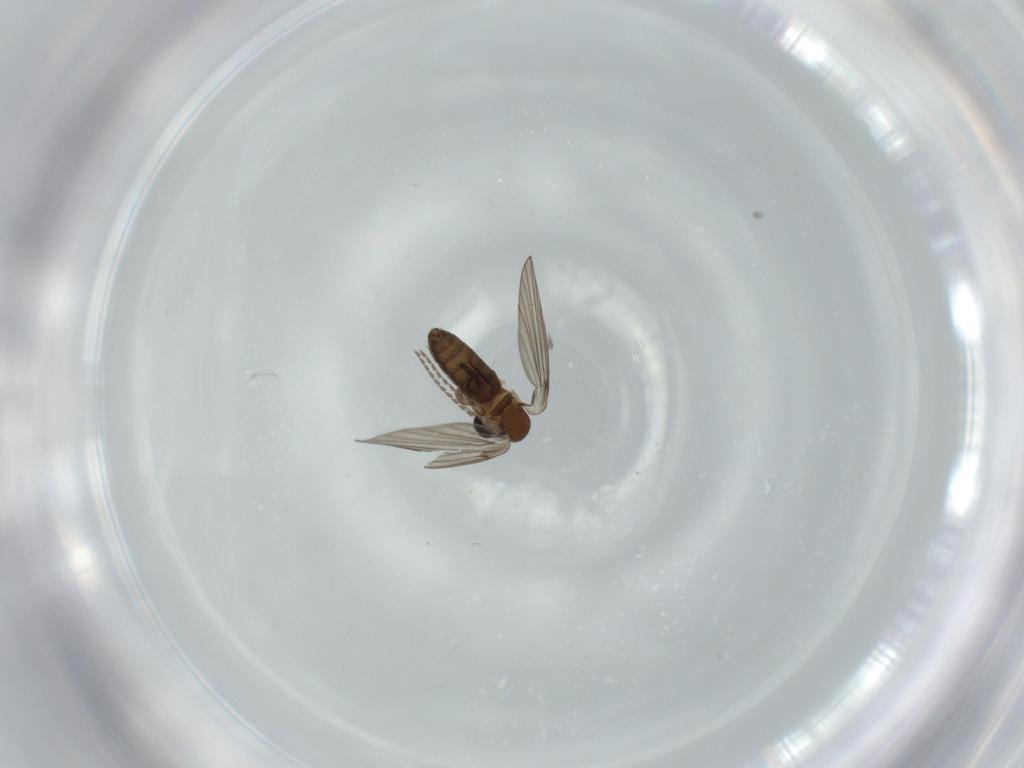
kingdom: Animalia
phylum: Arthropoda
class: Insecta
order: Diptera
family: Psychodidae
